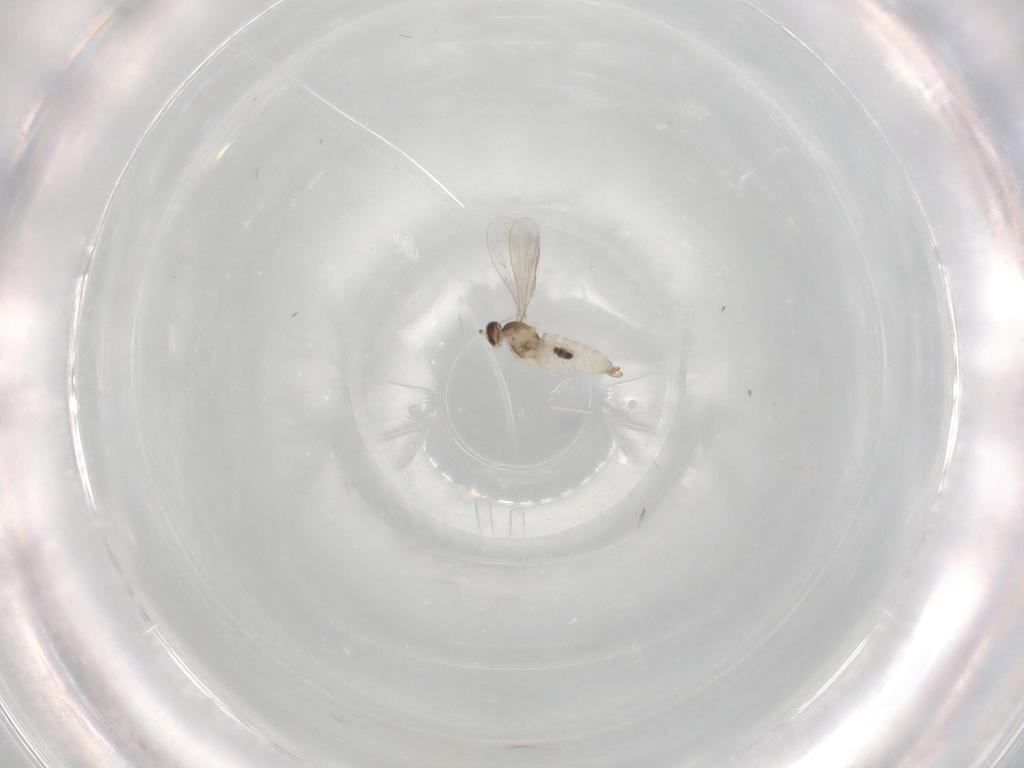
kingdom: Animalia
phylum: Arthropoda
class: Insecta
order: Diptera
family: Cecidomyiidae
